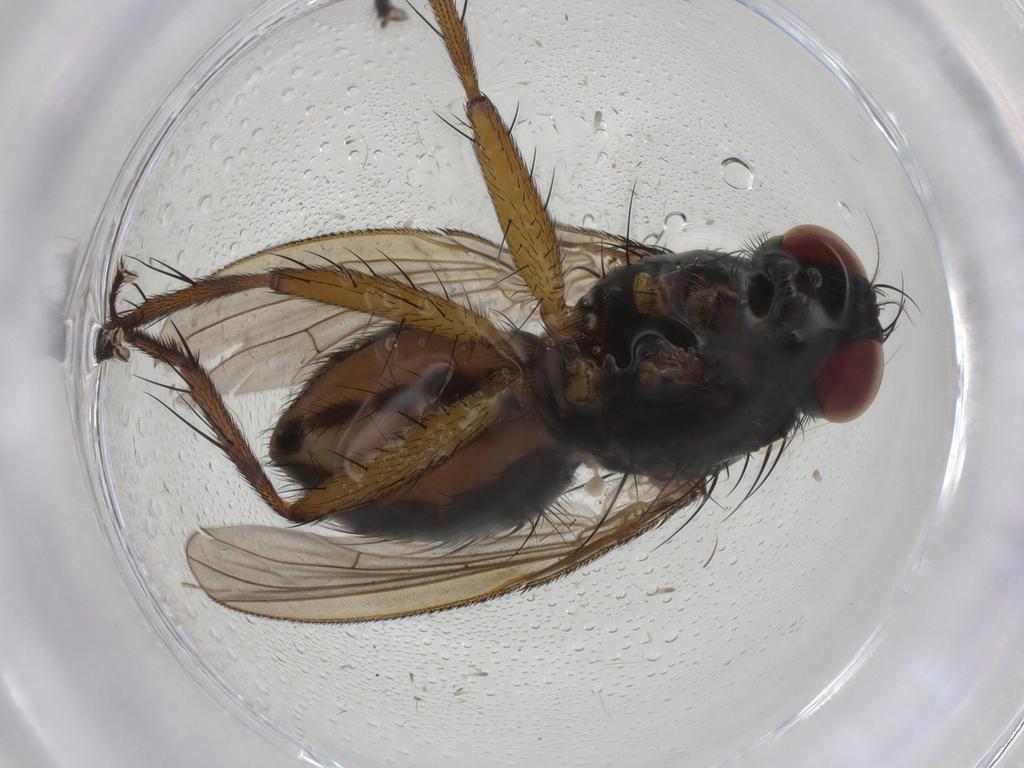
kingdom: Animalia
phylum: Arthropoda
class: Insecta
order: Diptera
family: Muscidae
